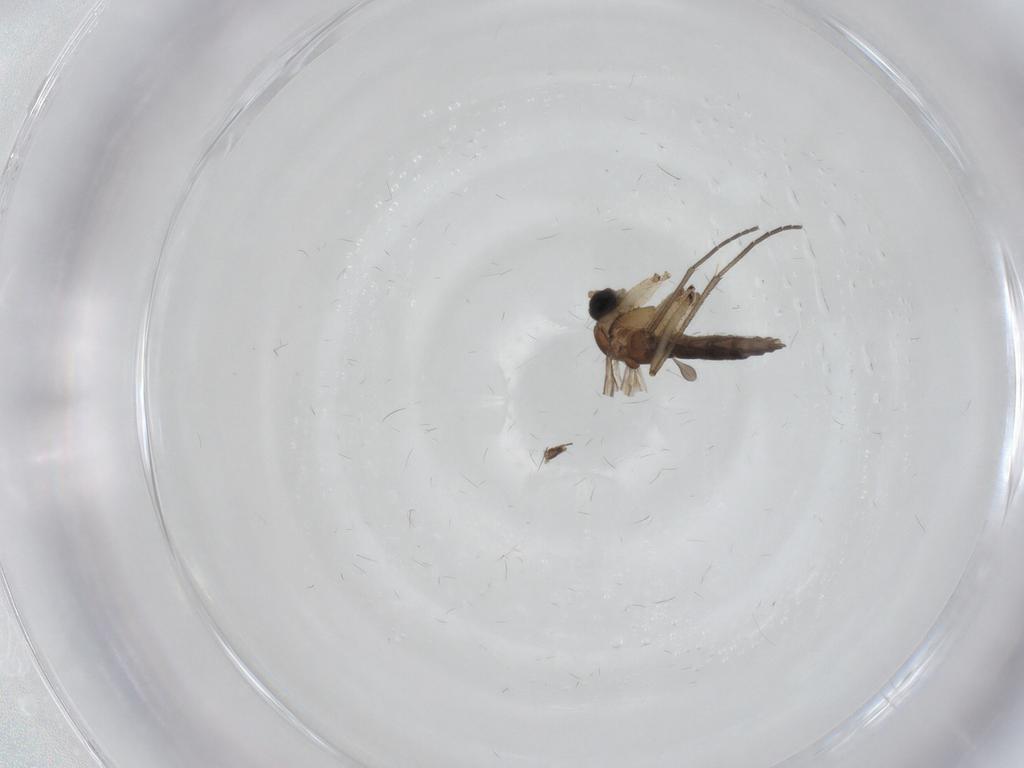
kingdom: Animalia
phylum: Arthropoda
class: Insecta
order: Diptera
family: Sciaridae
